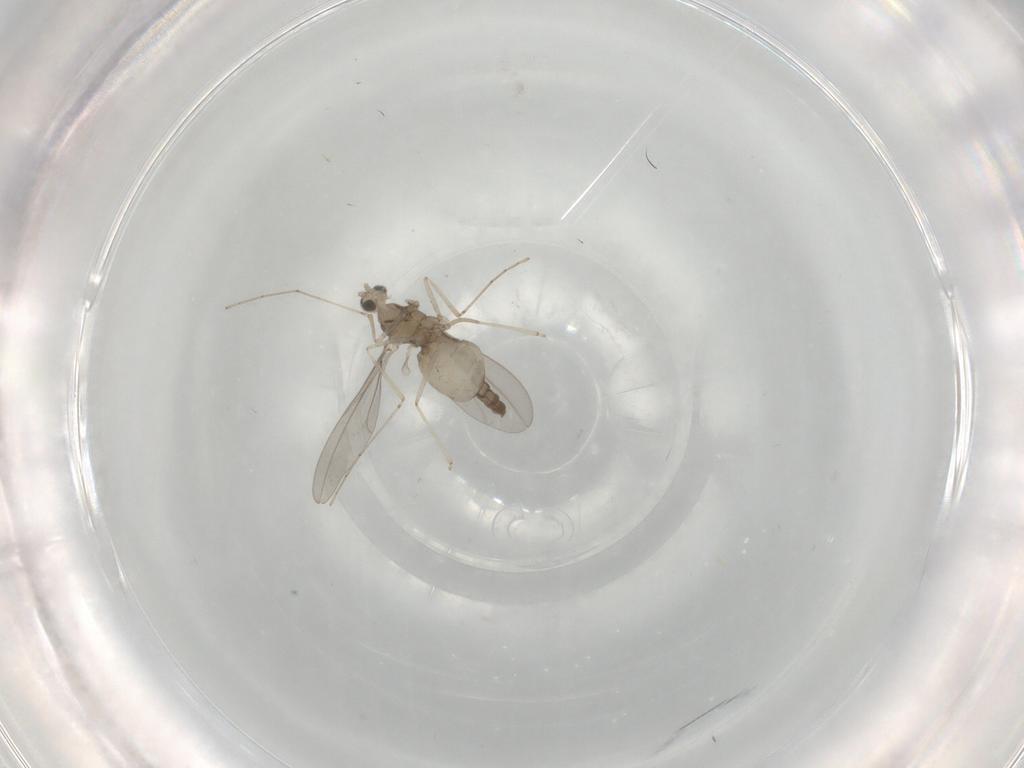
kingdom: Animalia
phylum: Arthropoda
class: Insecta
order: Diptera
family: Cecidomyiidae
